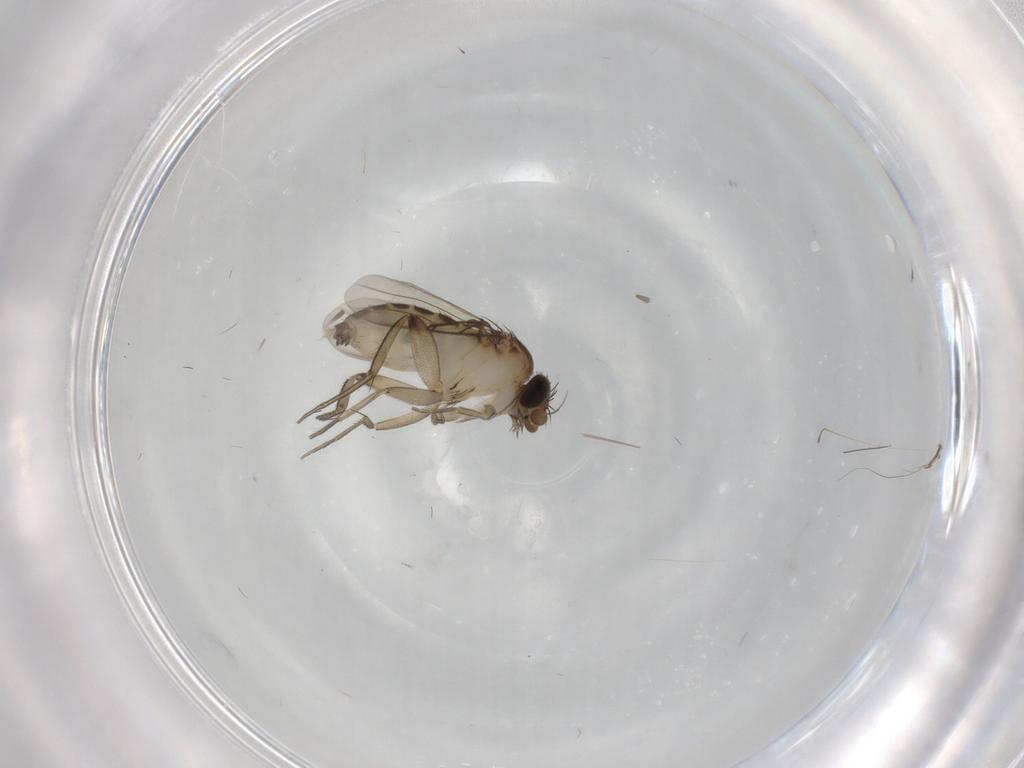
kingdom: Animalia
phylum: Arthropoda
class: Insecta
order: Diptera
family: Phoridae
